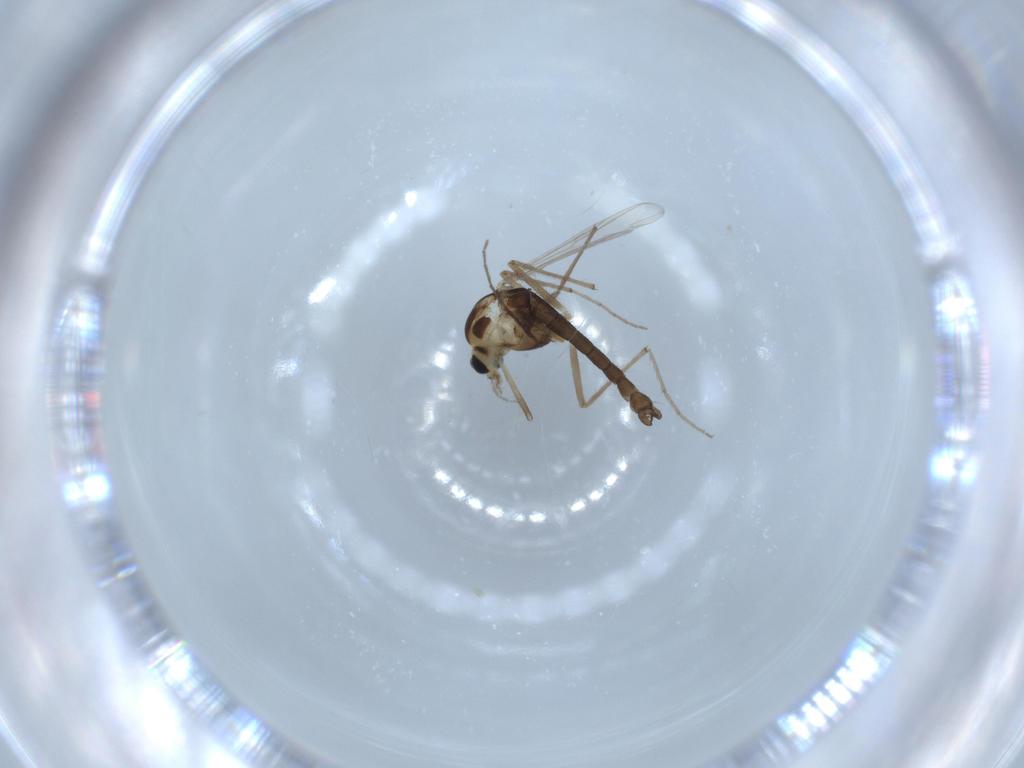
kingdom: Animalia
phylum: Arthropoda
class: Insecta
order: Diptera
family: Chironomidae
